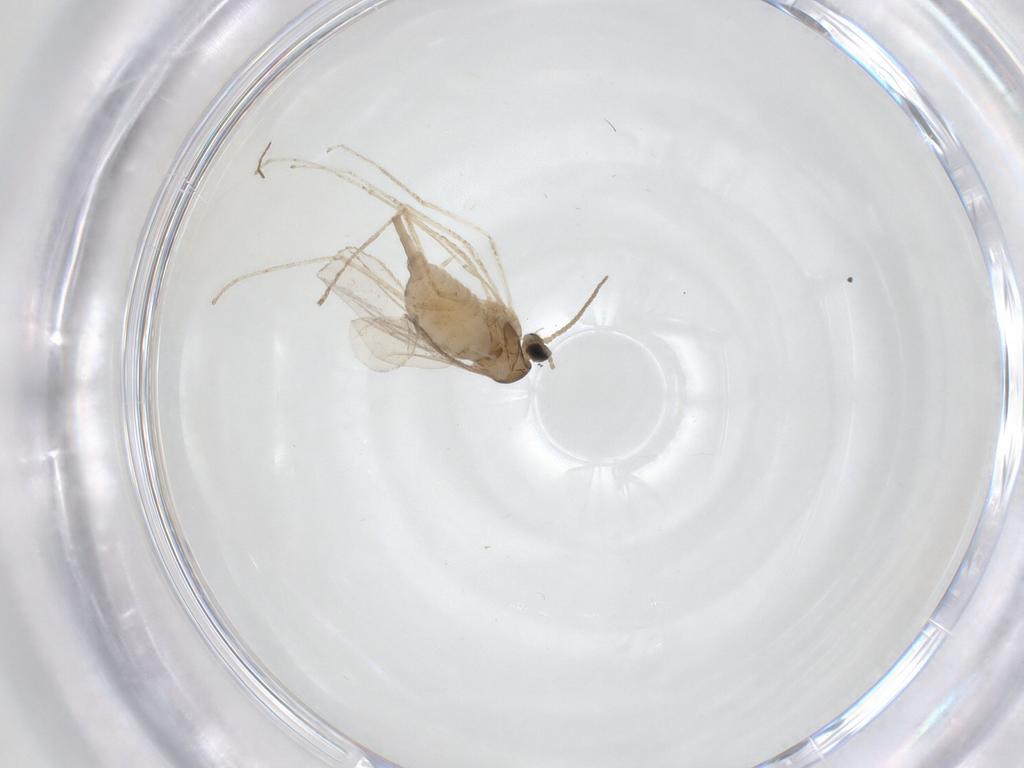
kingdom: Animalia
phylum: Arthropoda
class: Insecta
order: Diptera
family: Cecidomyiidae
